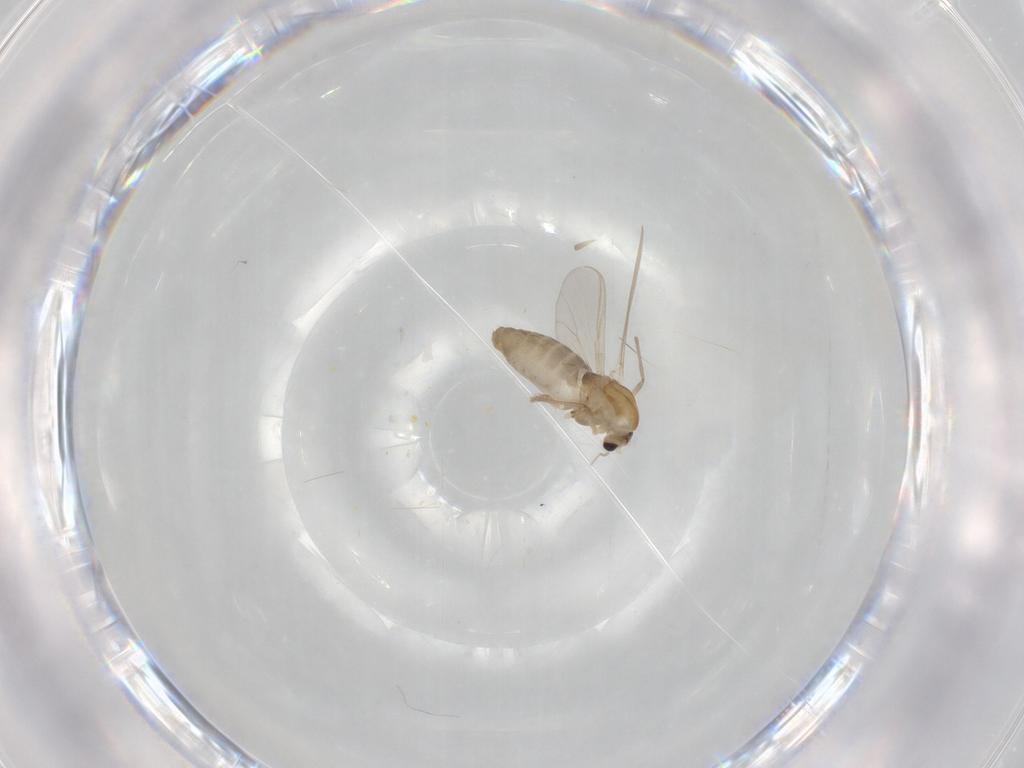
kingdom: Animalia
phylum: Arthropoda
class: Insecta
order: Diptera
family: Chironomidae
